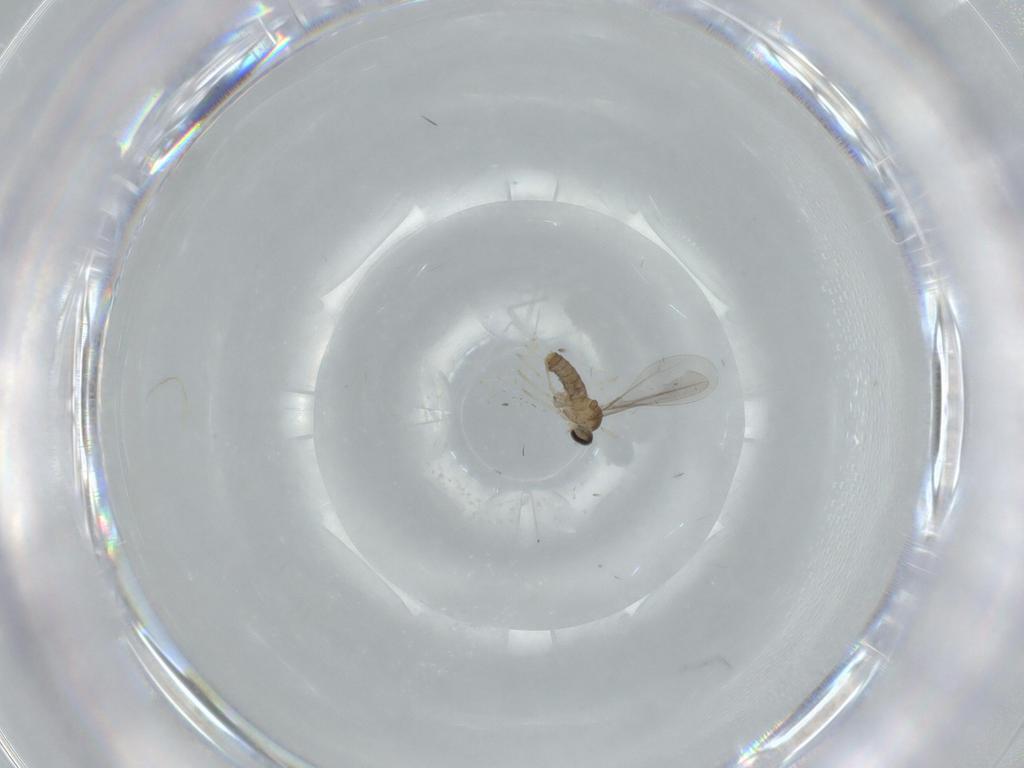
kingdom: Animalia
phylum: Arthropoda
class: Insecta
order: Diptera
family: Cecidomyiidae
